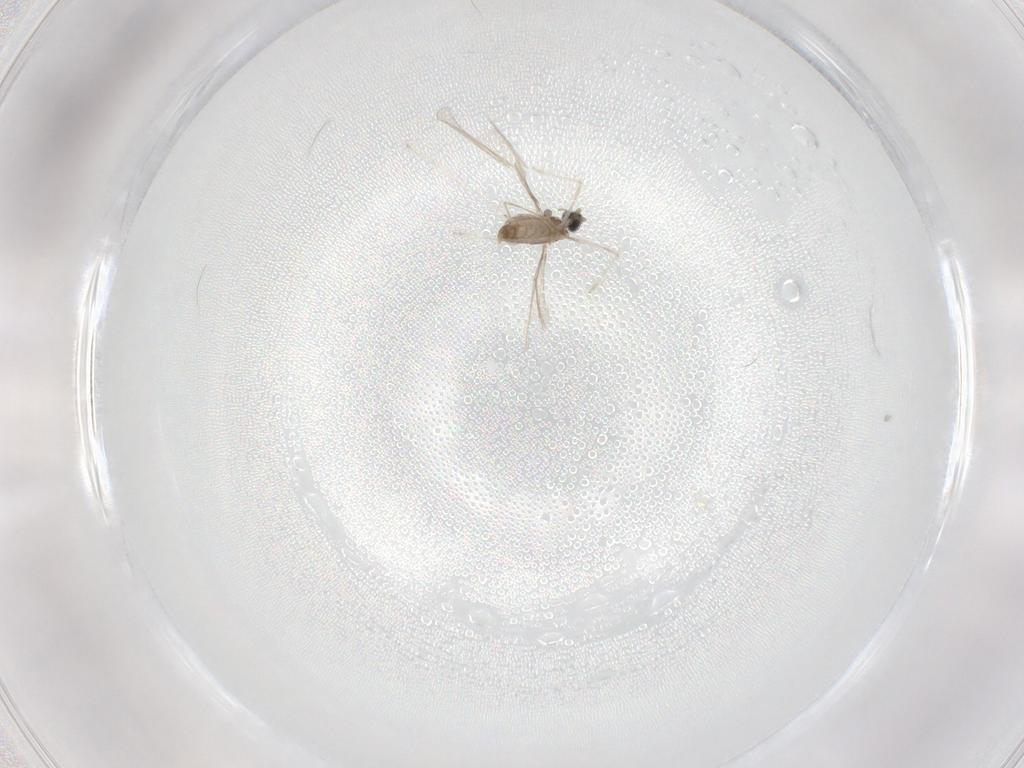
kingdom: Animalia
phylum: Arthropoda
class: Insecta
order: Diptera
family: Cecidomyiidae
